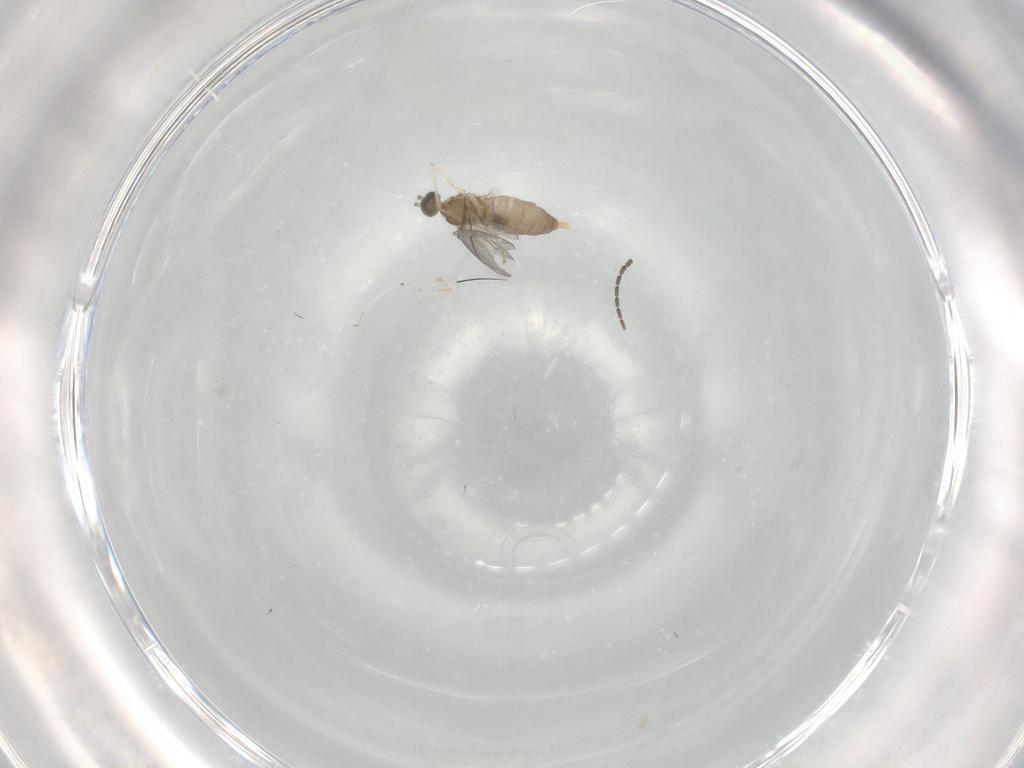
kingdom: Animalia
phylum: Arthropoda
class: Insecta
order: Diptera
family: Cecidomyiidae
